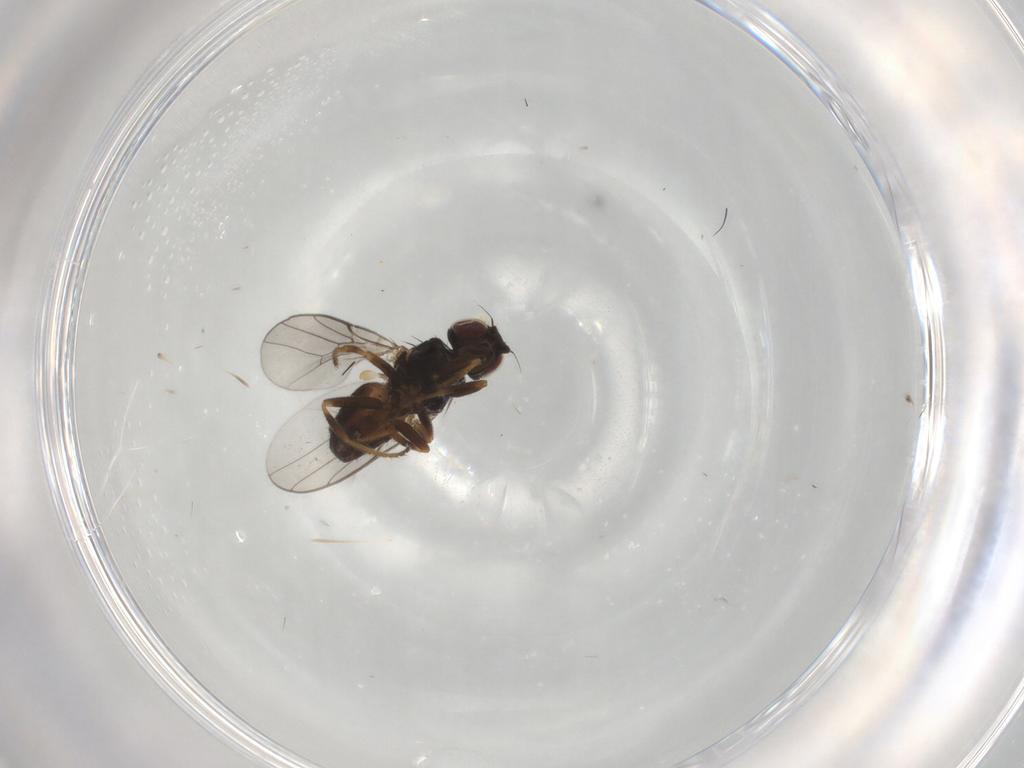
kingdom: Animalia
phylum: Arthropoda
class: Insecta
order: Diptera
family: Chloropidae
